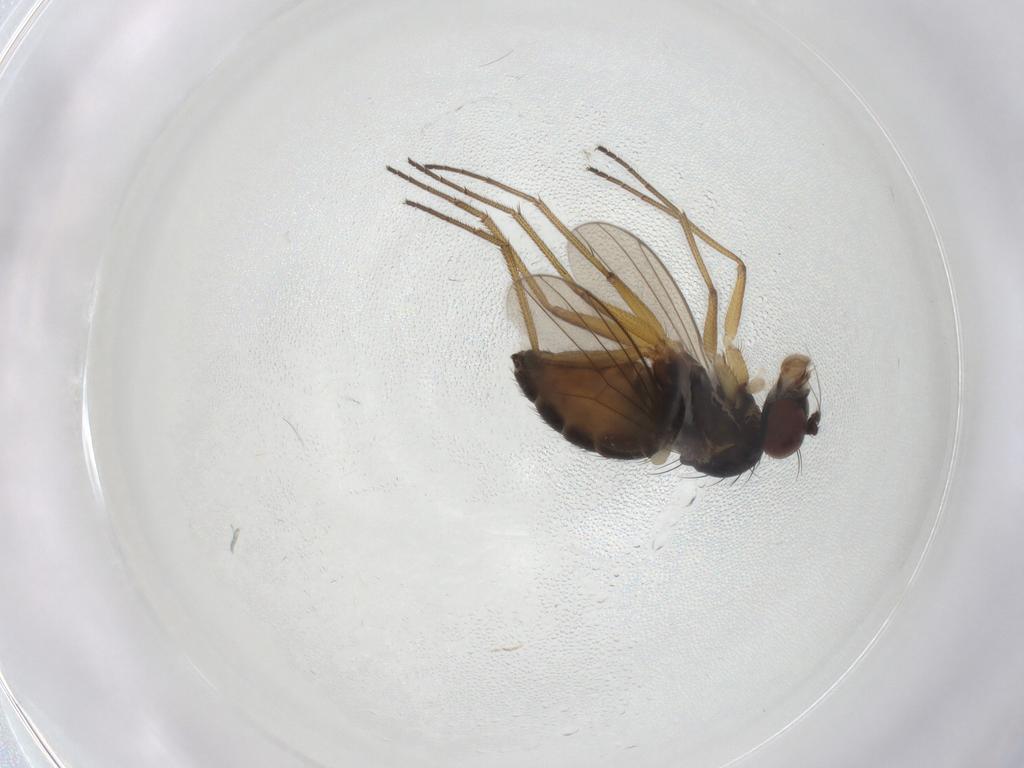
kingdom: Animalia
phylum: Arthropoda
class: Insecta
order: Diptera
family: Dolichopodidae
